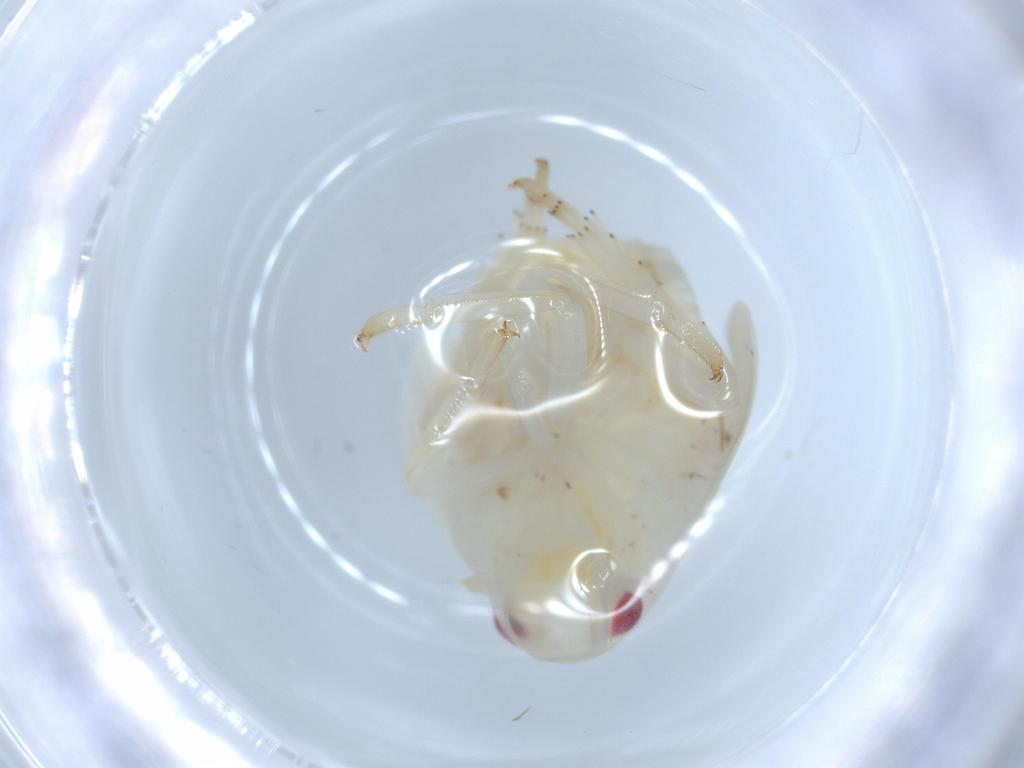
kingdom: Animalia
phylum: Arthropoda
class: Insecta
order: Hemiptera
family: Flatidae
